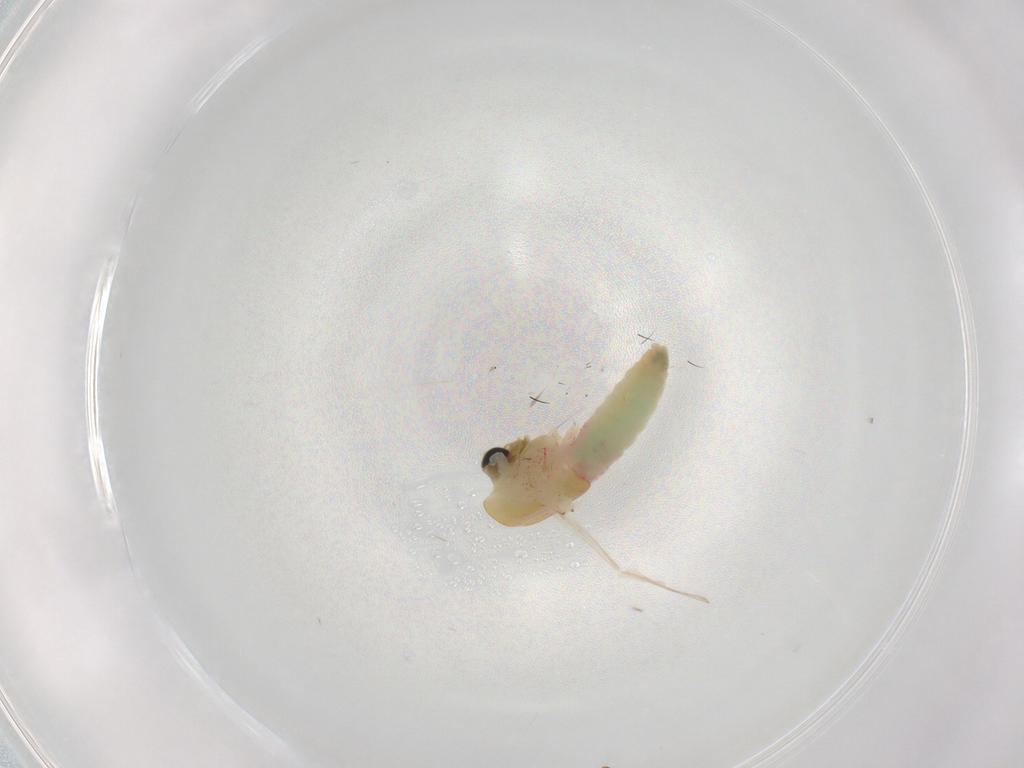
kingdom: Animalia
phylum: Arthropoda
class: Insecta
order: Diptera
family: Chironomidae
